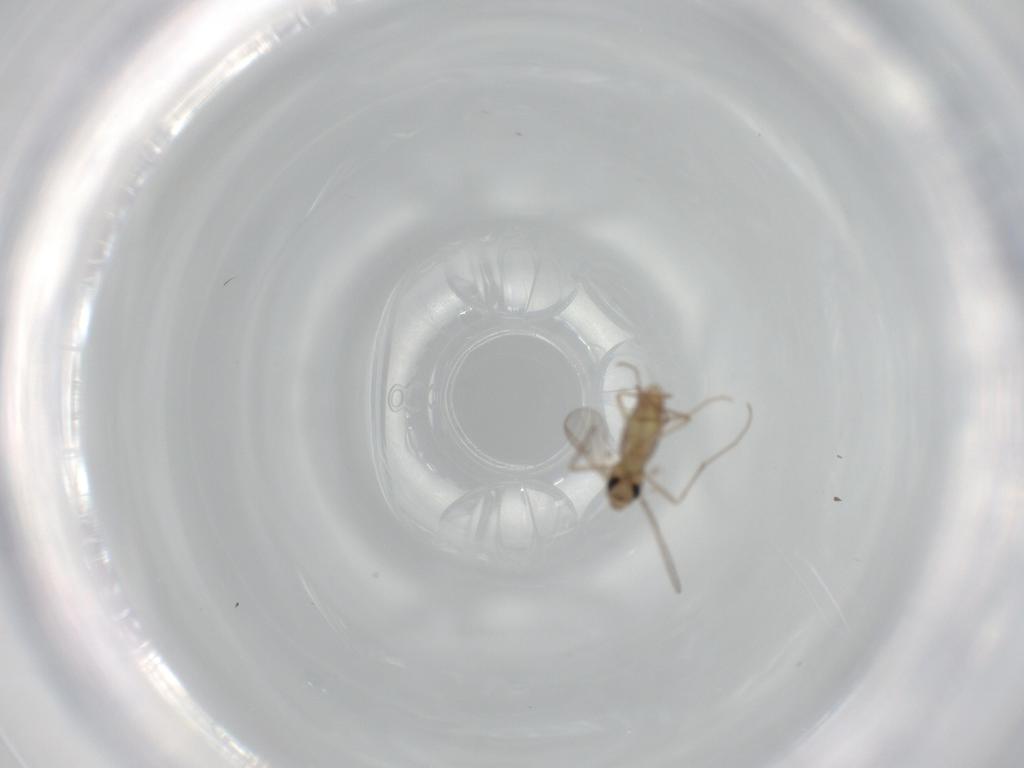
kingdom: Animalia
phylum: Arthropoda
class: Insecta
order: Diptera
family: Chironomidae
